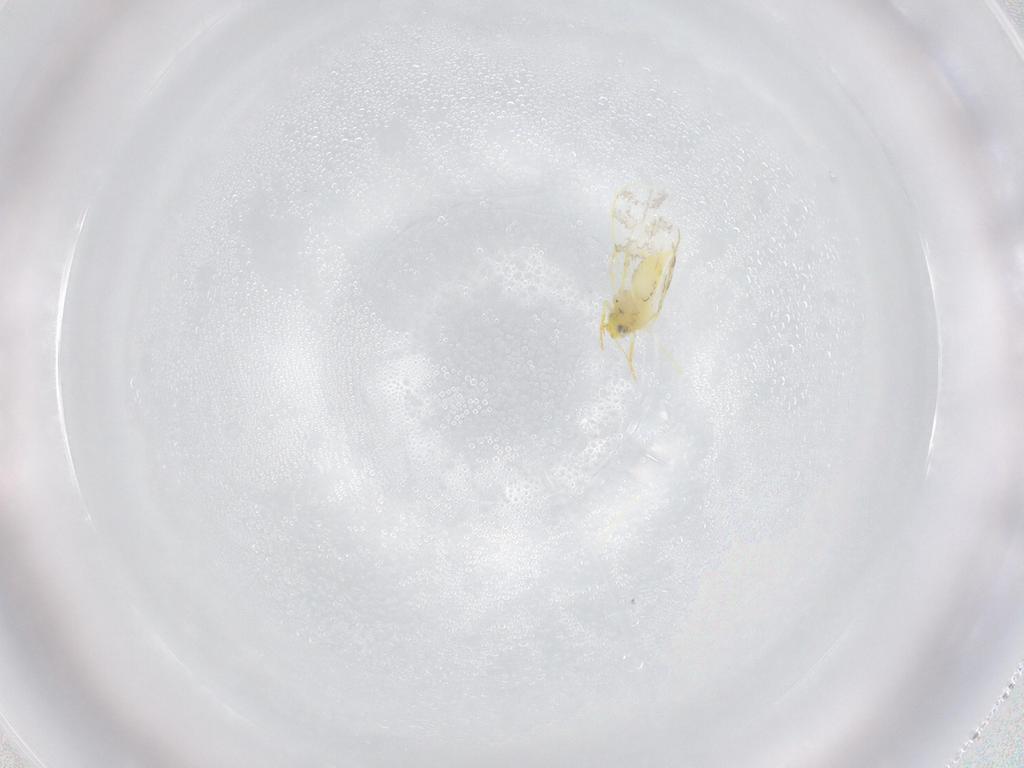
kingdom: Animalia
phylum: Arthropoda
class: Insecta
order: Hemiptera
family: Aleyrodidae
